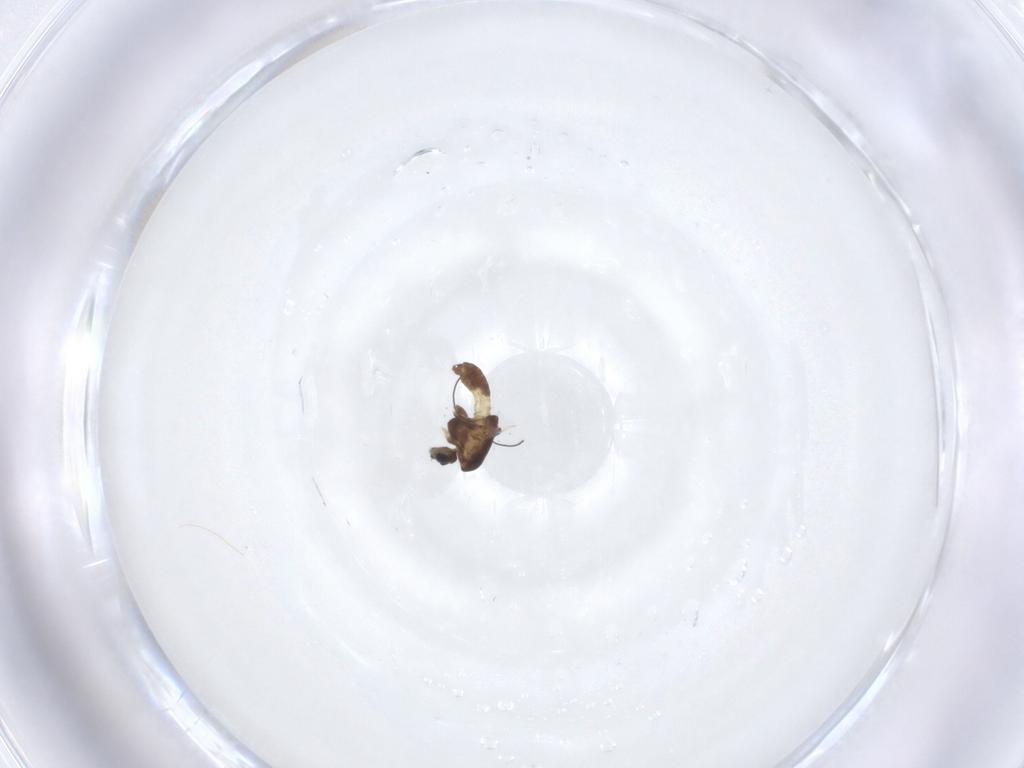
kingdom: Animalia
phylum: Arthropoda
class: Insecta
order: Diptera
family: Chironomidae
